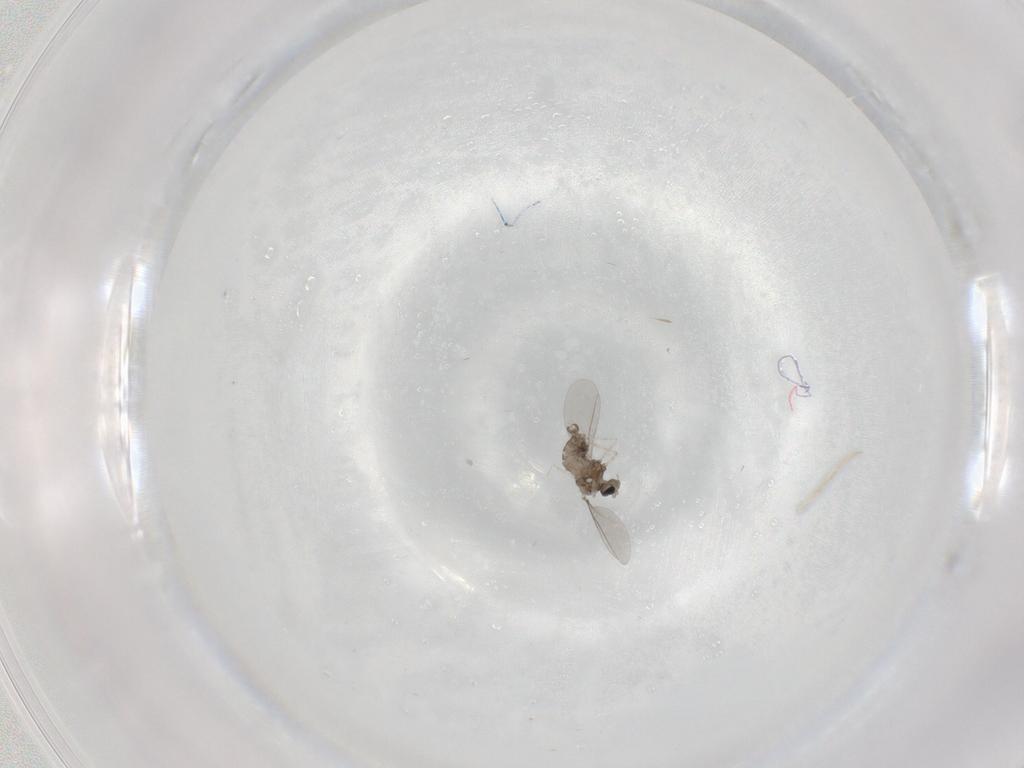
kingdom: Animalia
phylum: Arthropoda
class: Insecta
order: Diptera
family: Cecidomyiidae
